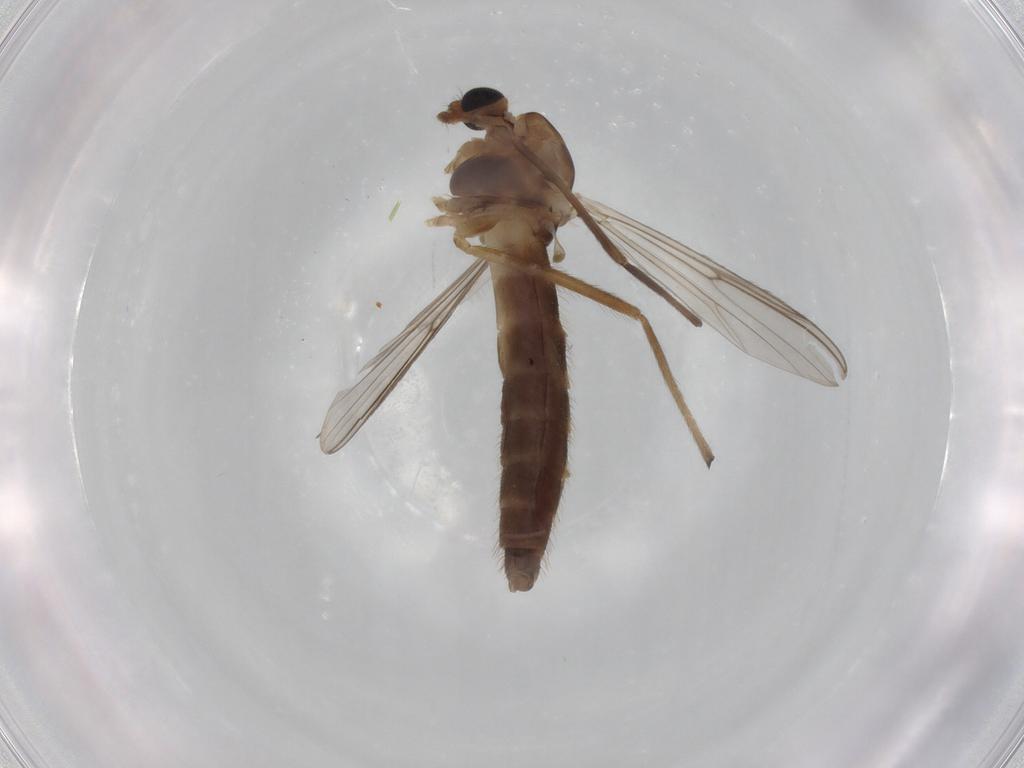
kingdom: Animalia
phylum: Arthropoda
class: Insecta
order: Diptera
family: Chironomidae
